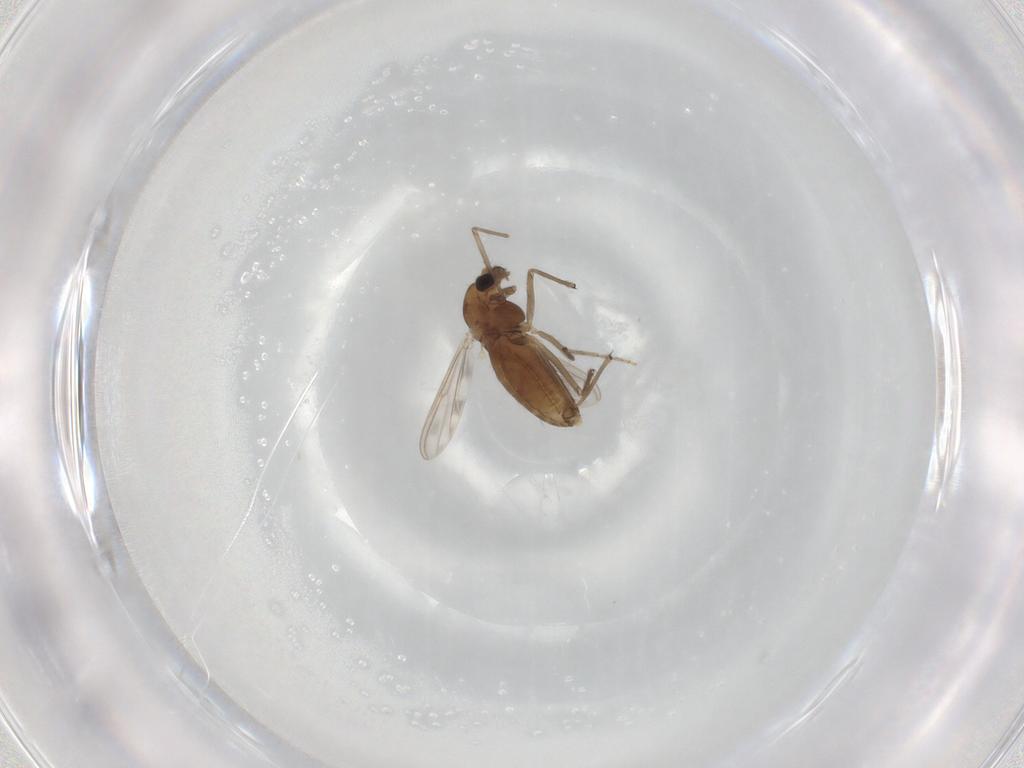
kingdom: Animalia
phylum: Arthropoda
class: Insecta
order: Diptera
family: Chironomidae
